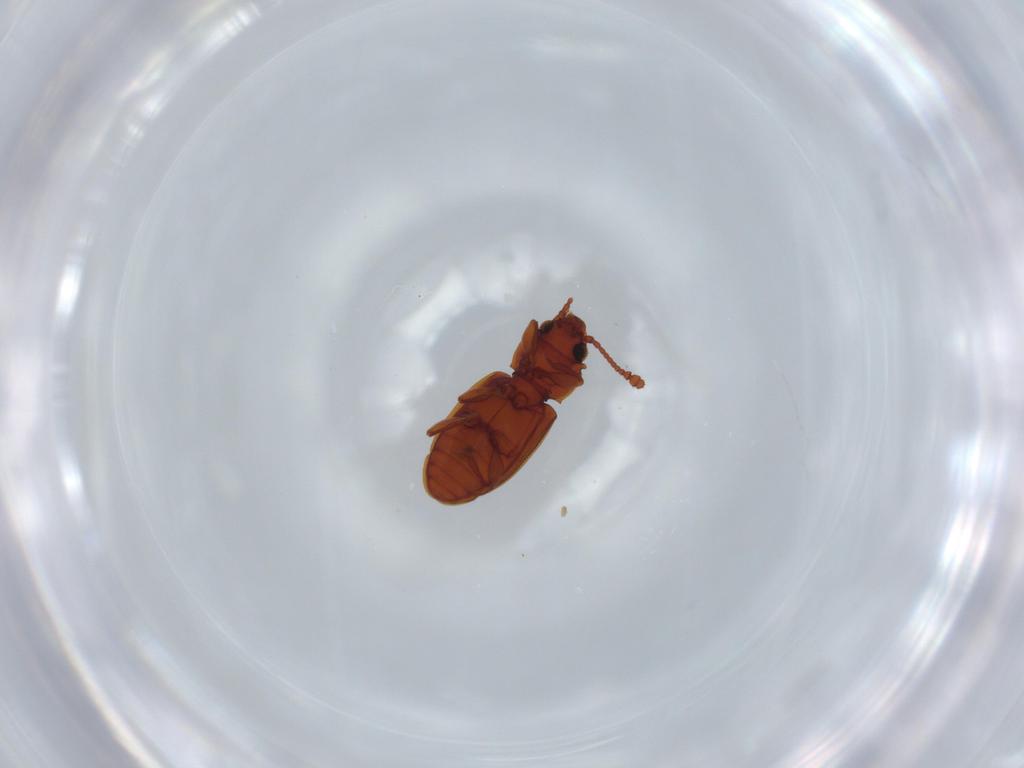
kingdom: Animalia
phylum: Arthropoda
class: Insecta
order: Coleoptera
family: Silvanidae
